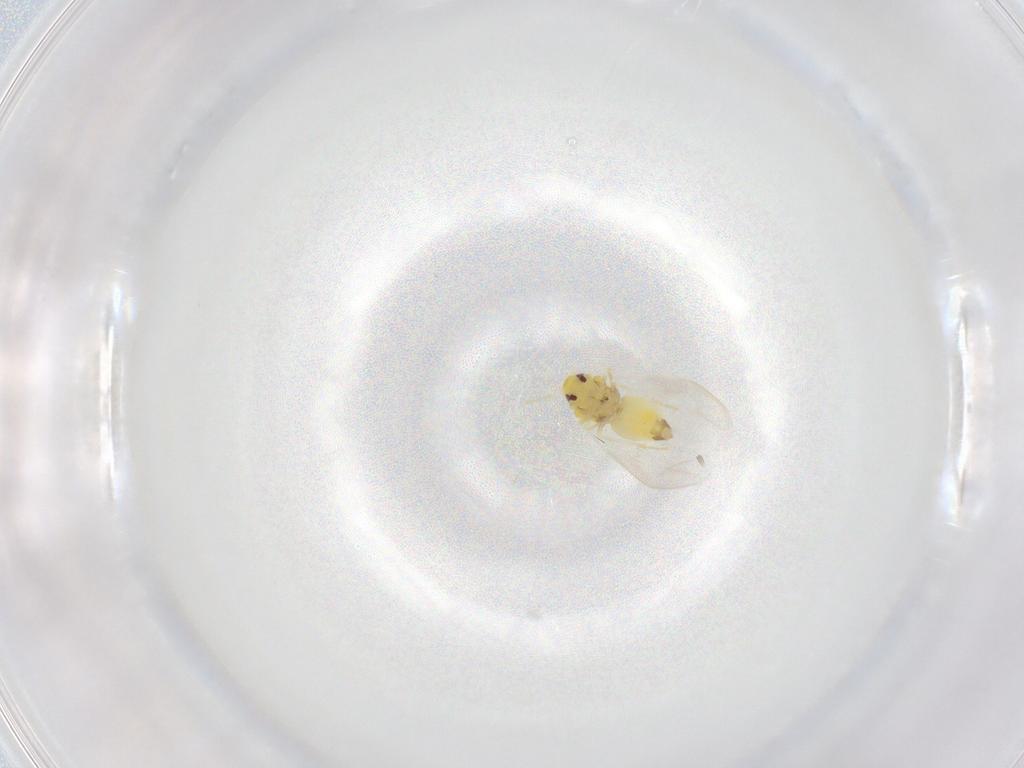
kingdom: Animalia
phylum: Arthropoda
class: Insecta
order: Hemiptera
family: Aleyrodidae
